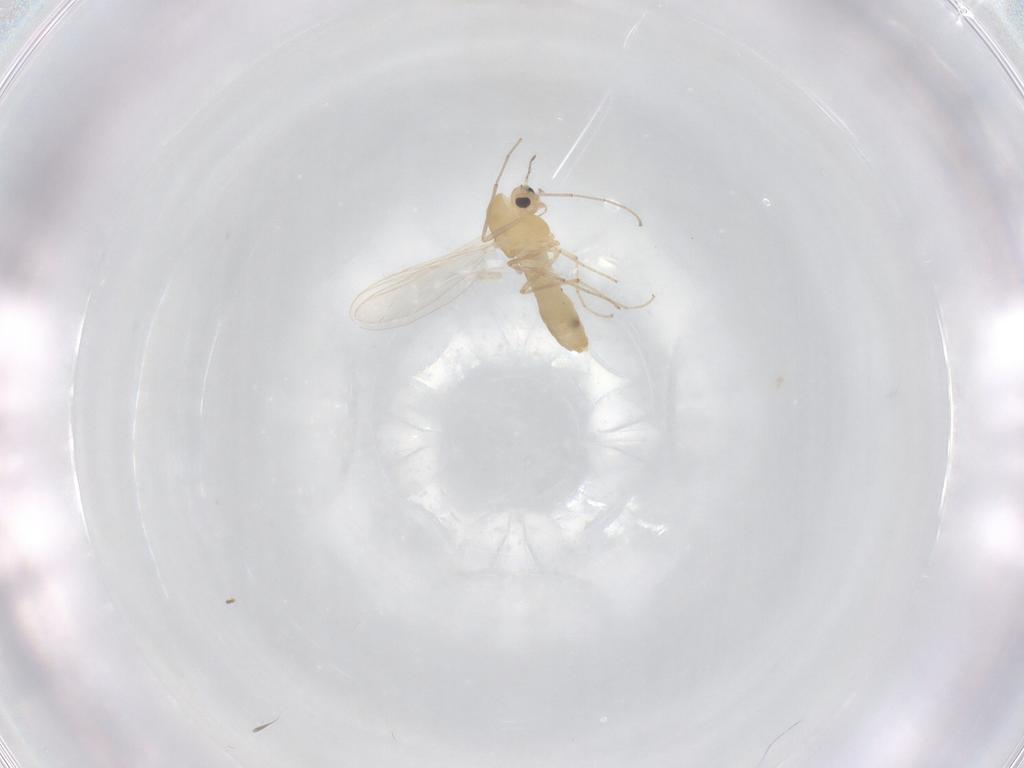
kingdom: Animalia
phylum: Arthropoda
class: Insecta
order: Diptera
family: Chironomidae
